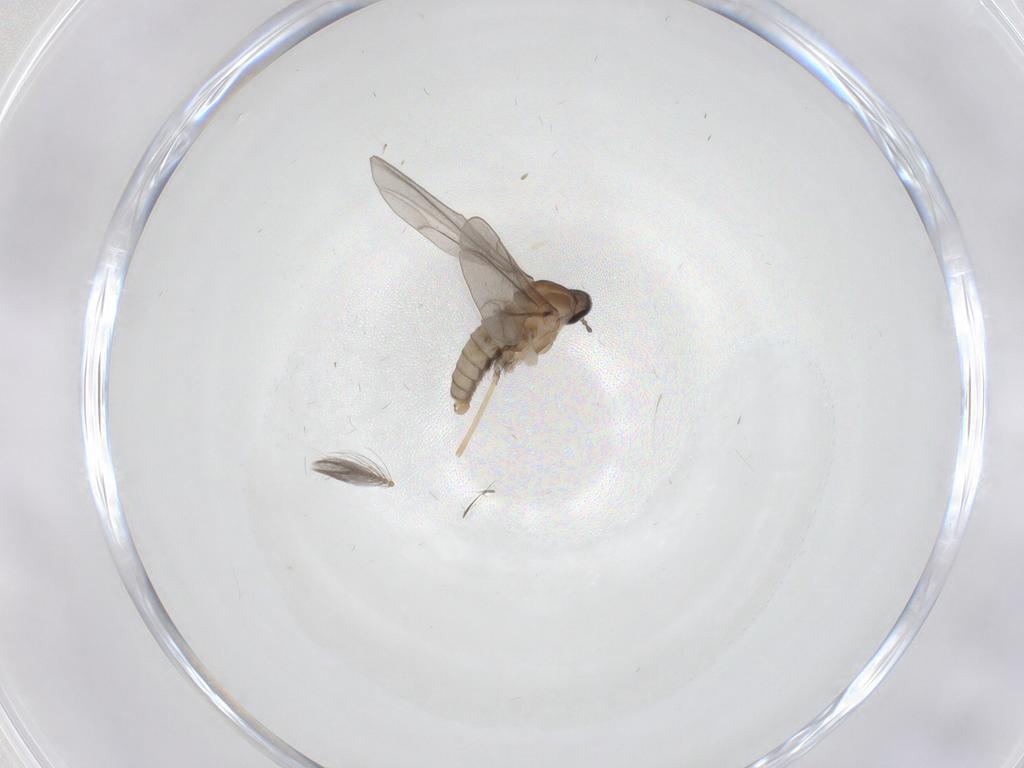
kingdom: Animalia
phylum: Arthropoda
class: Insecta
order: Diptera
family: Cecidomyiidae
